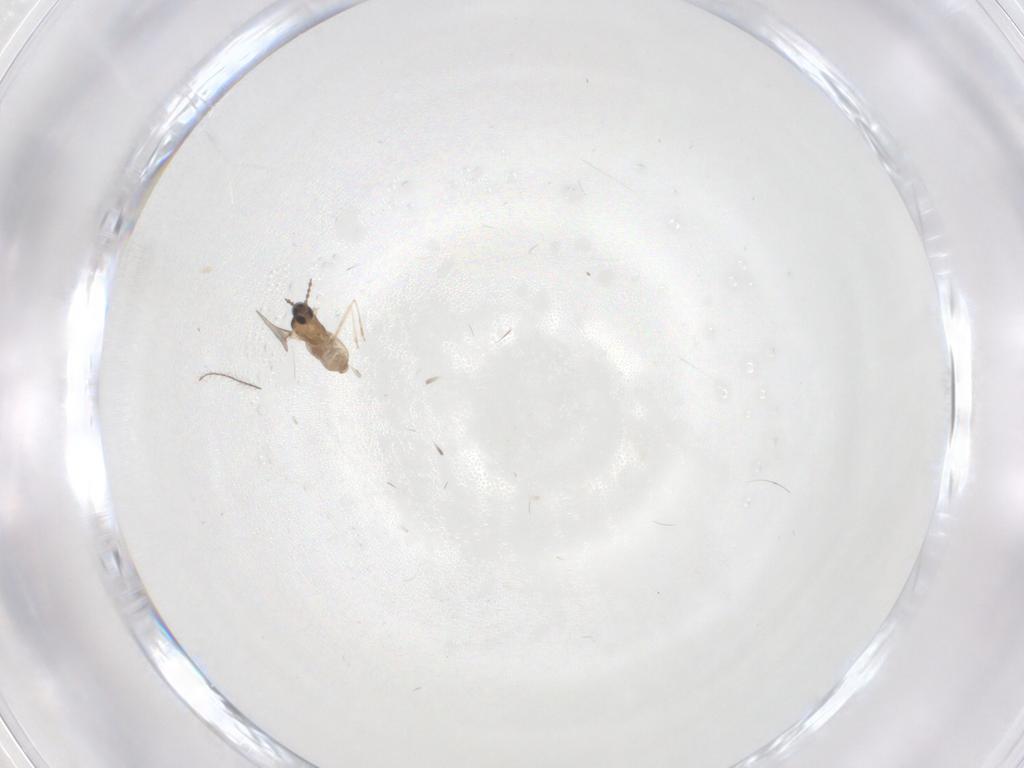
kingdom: Animalia
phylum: Arthropoda
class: Insecta
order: Diptera
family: Cecidomyiidae
